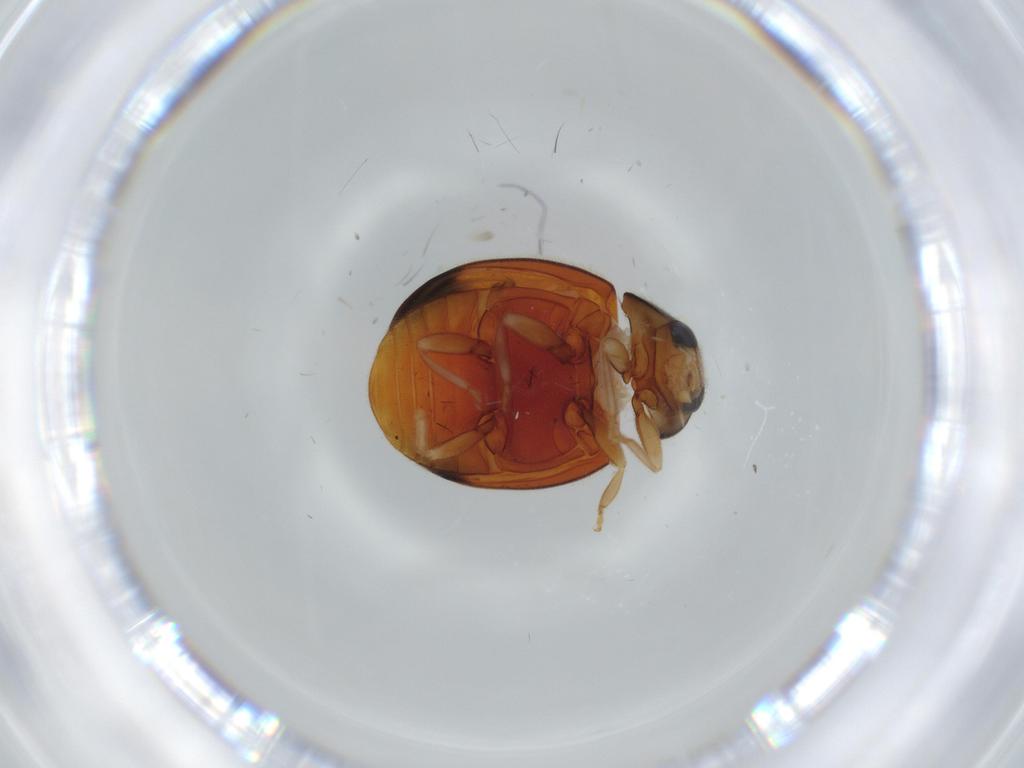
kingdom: Animalia
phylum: Arthropoda
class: Insecta
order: Coleoptera
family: Coccinellidae
